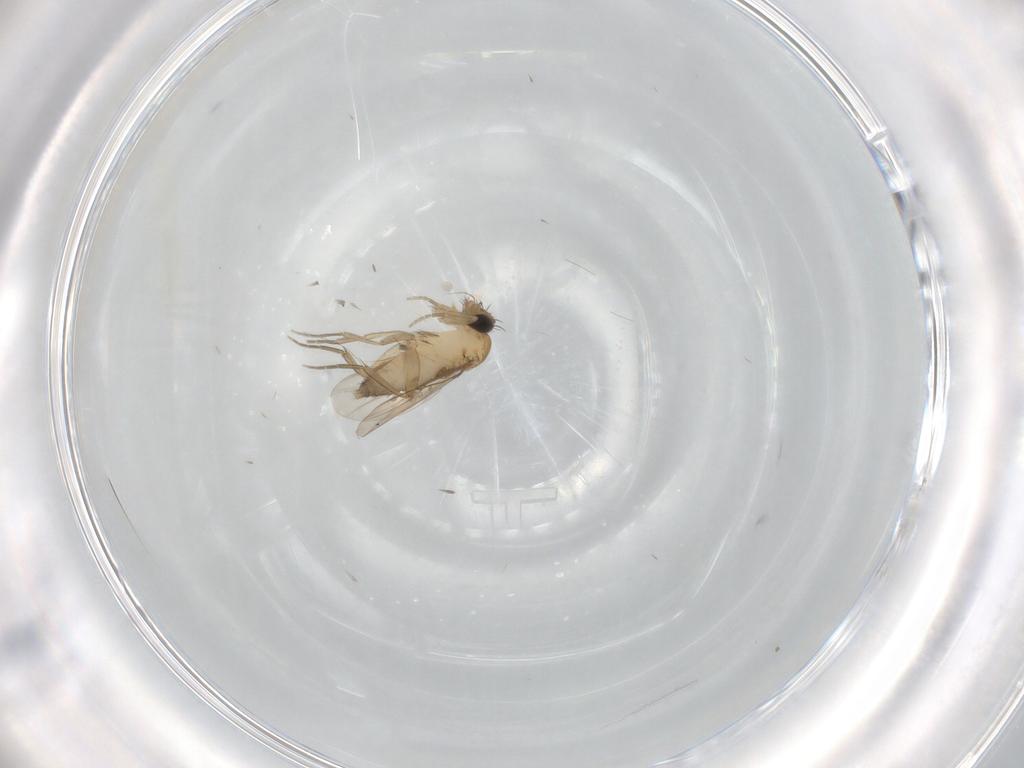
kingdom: Animalia
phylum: Arthropoda
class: Insecta
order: Diptera
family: Phoridae
